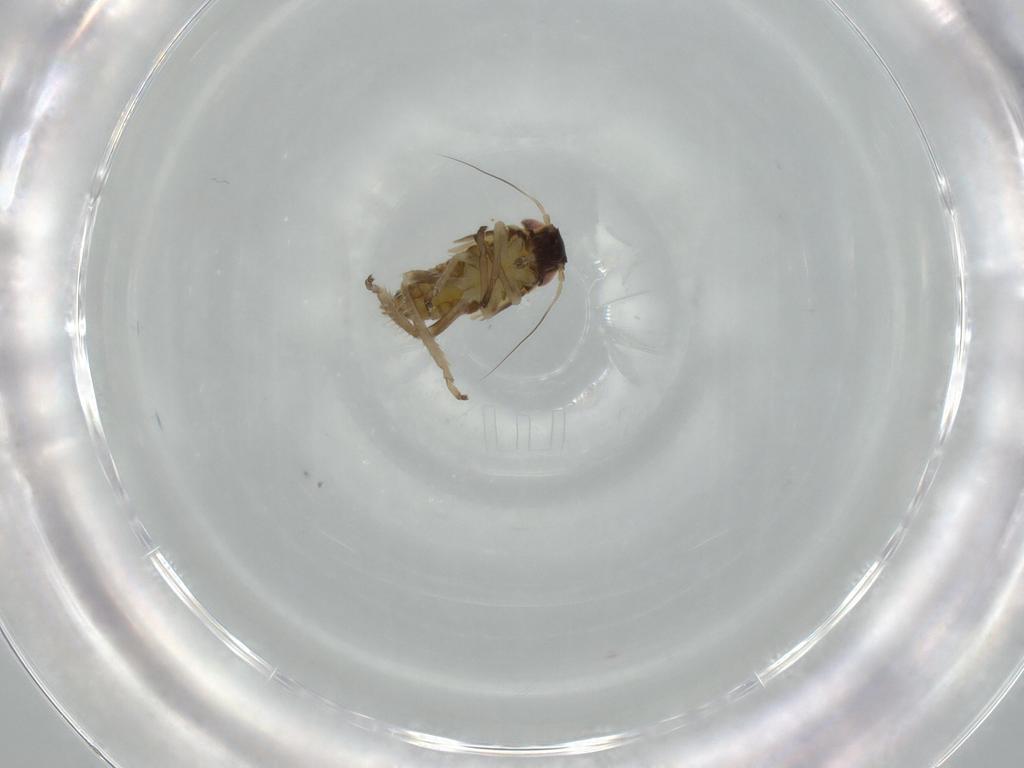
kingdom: Animalia
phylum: Arthropoda
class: Insecta
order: Hemiptera
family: Cicadellidae
